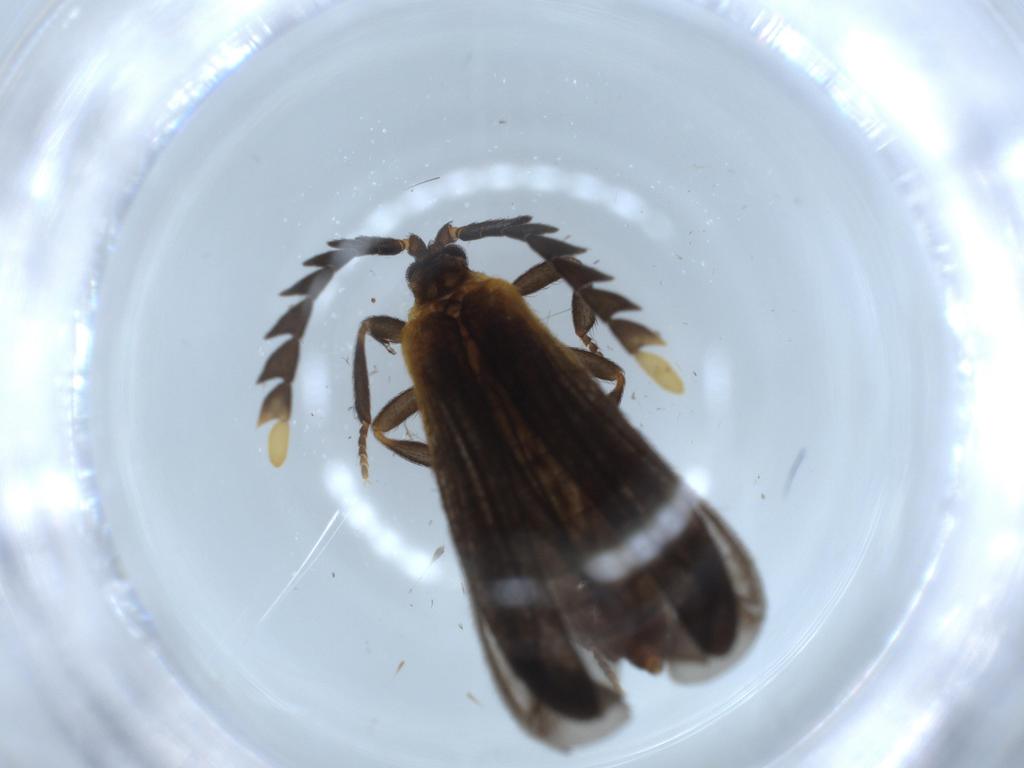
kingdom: Animalia
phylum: Arthropoda
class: Insecta
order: Coleoptera
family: Lycidae
